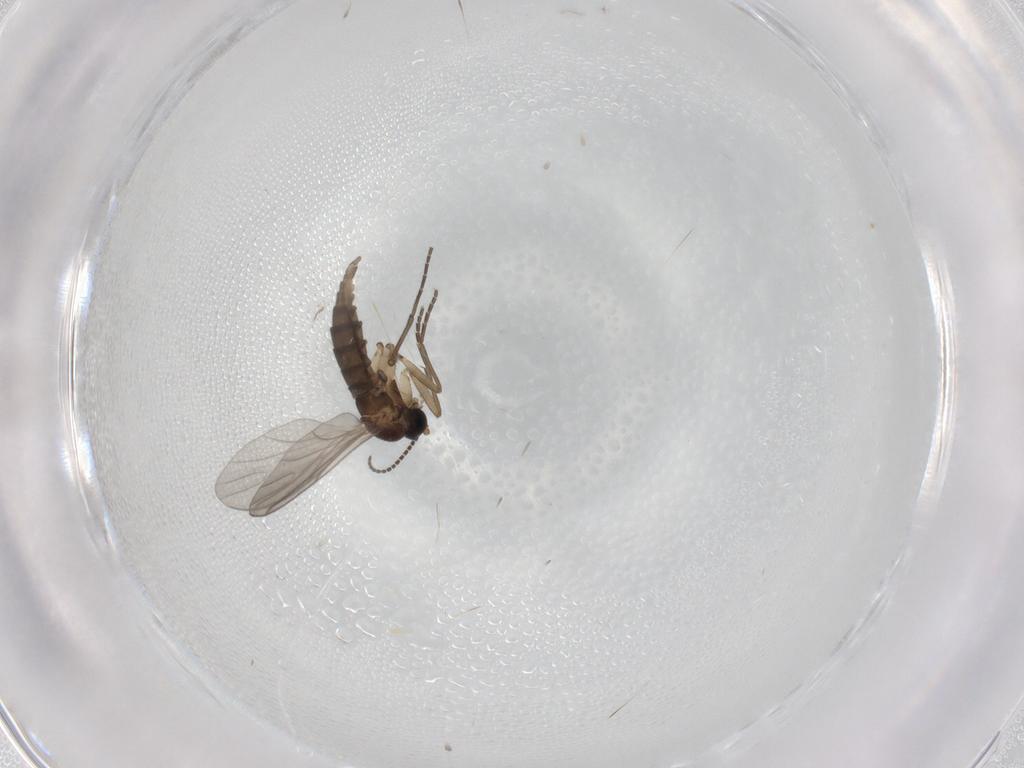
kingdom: Animalia
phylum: Arthropoda
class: Insecta
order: Diptera
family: Sciaridae
